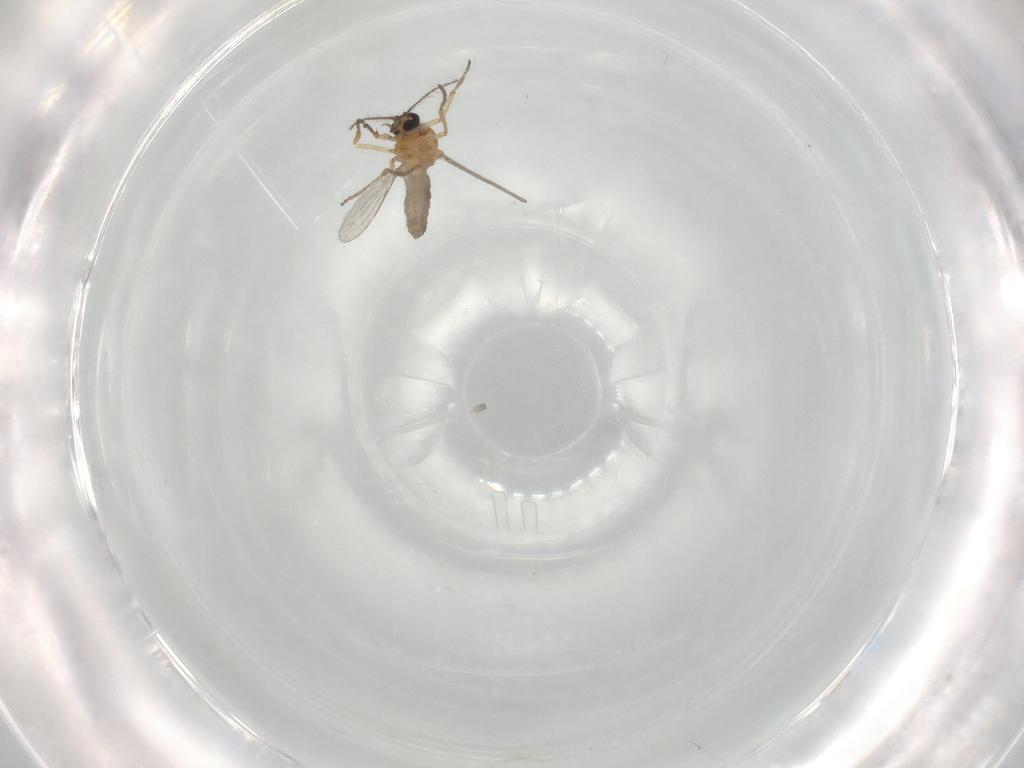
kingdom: Animalia
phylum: Arthropoda
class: Insecta
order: Diptera
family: Ceratopogonidae
